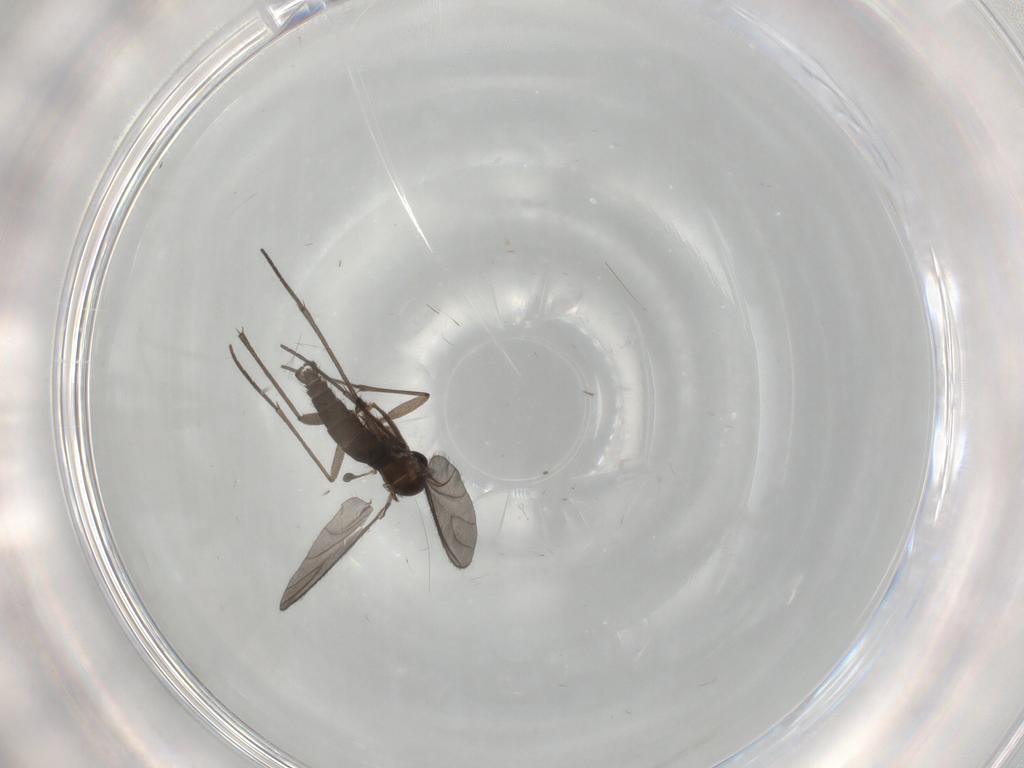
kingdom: Animalia
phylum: Arthropoda
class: Insecta
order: Diptera
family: Sciaridae
